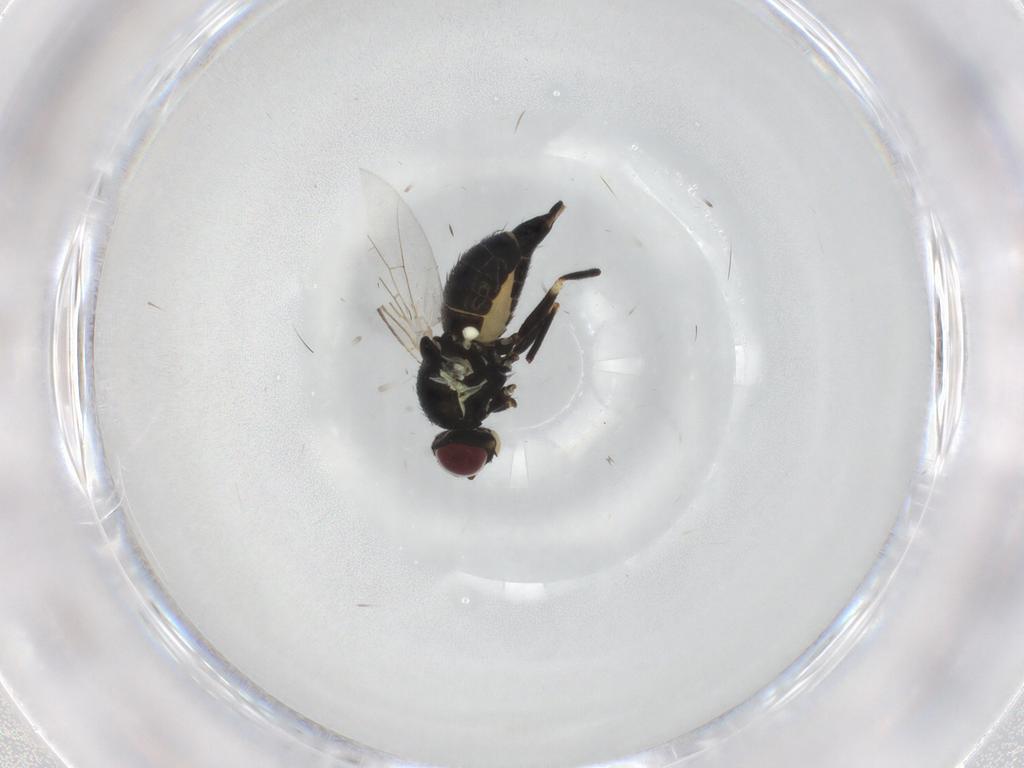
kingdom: Animalia
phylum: Arthropoda
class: Insecta
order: Diptera
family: Agromyzidae
